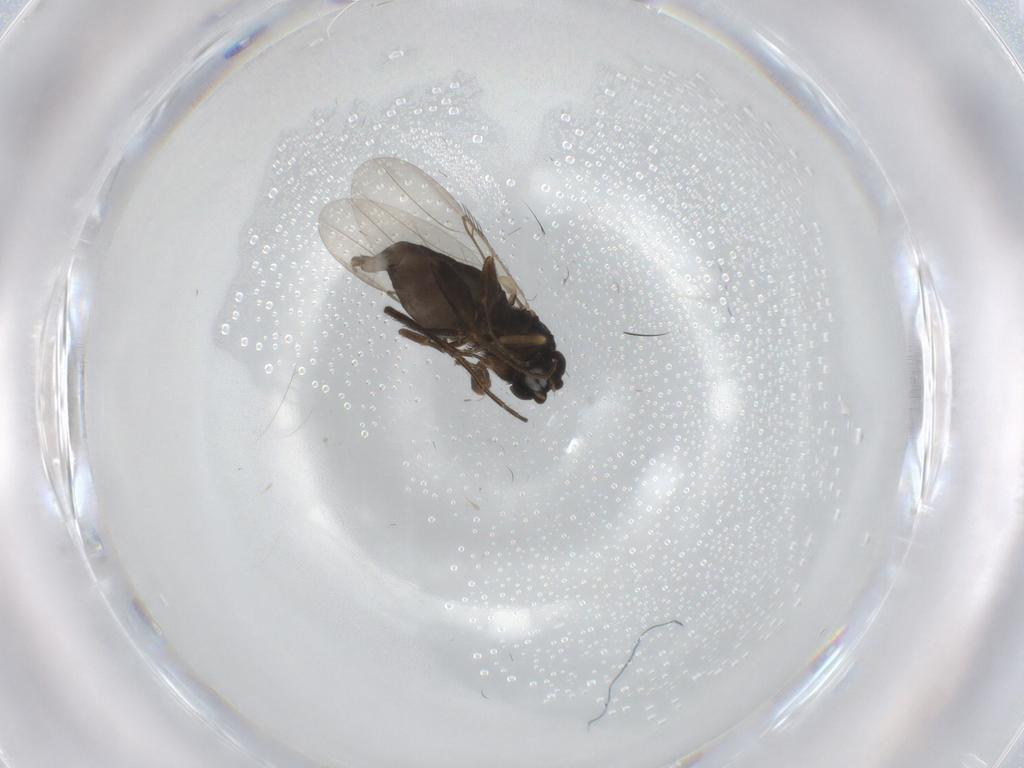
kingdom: Animalia
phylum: Arthropoda
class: Insecta
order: Diptera
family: Phoridae
